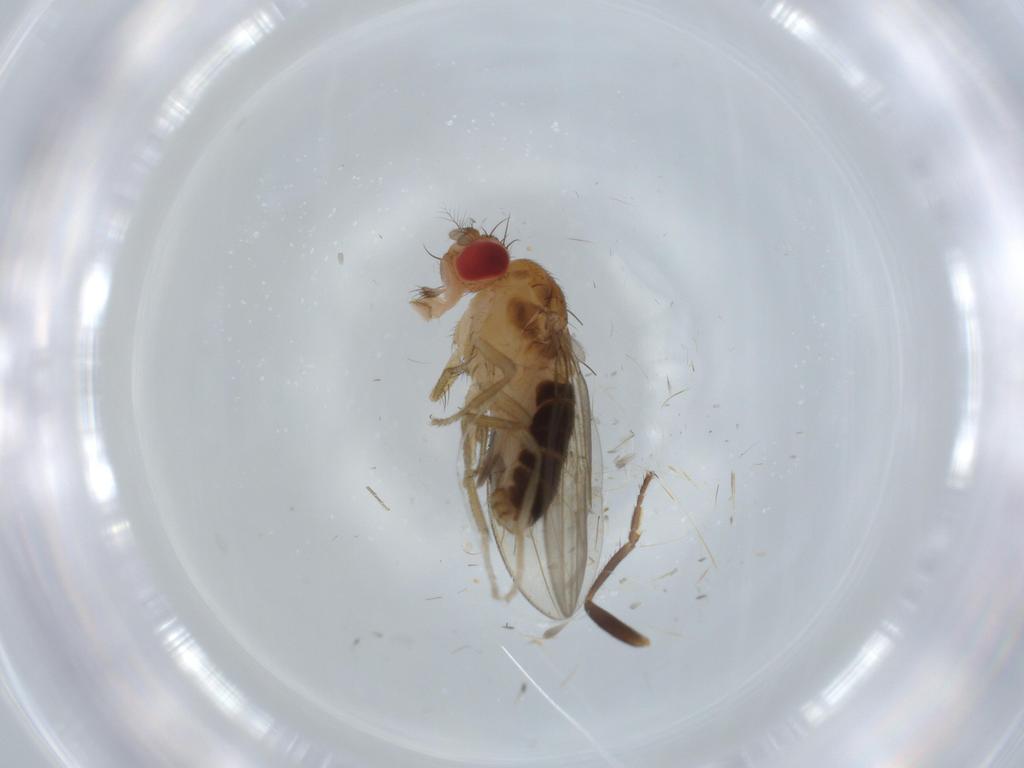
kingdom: Animalia
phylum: Arthropoda
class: Insecta
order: Diptera
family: Drosophilidae
